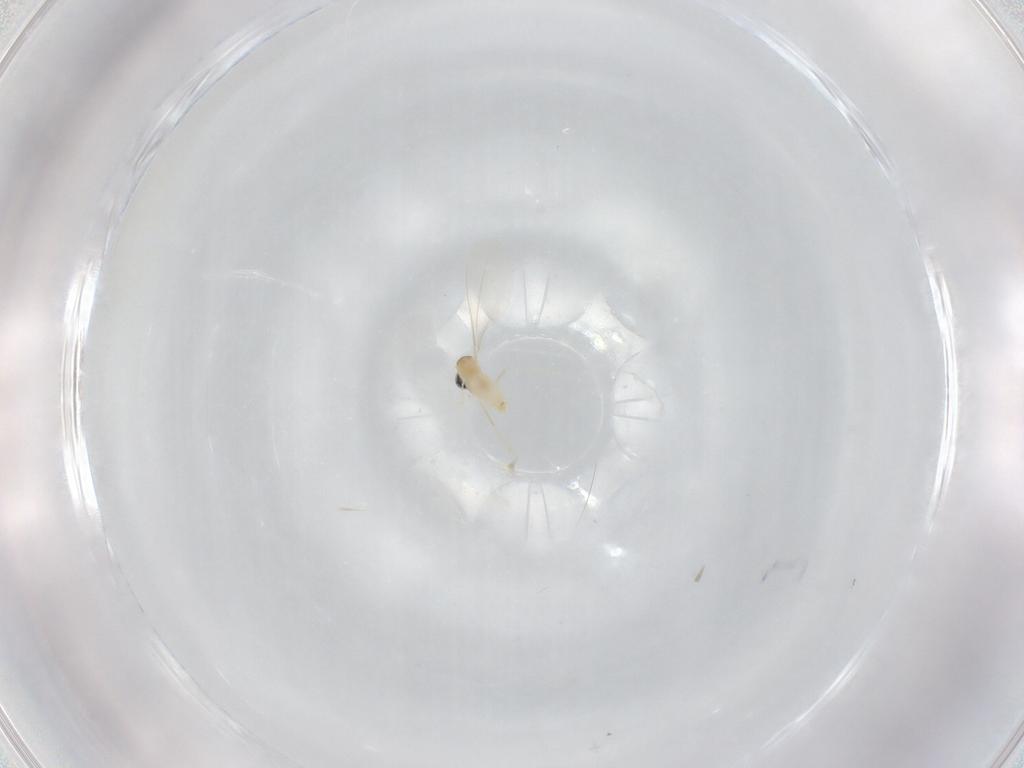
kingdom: Animalia
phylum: Arthropoda
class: Insecta
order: Diptera
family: Cecidomyiidae
